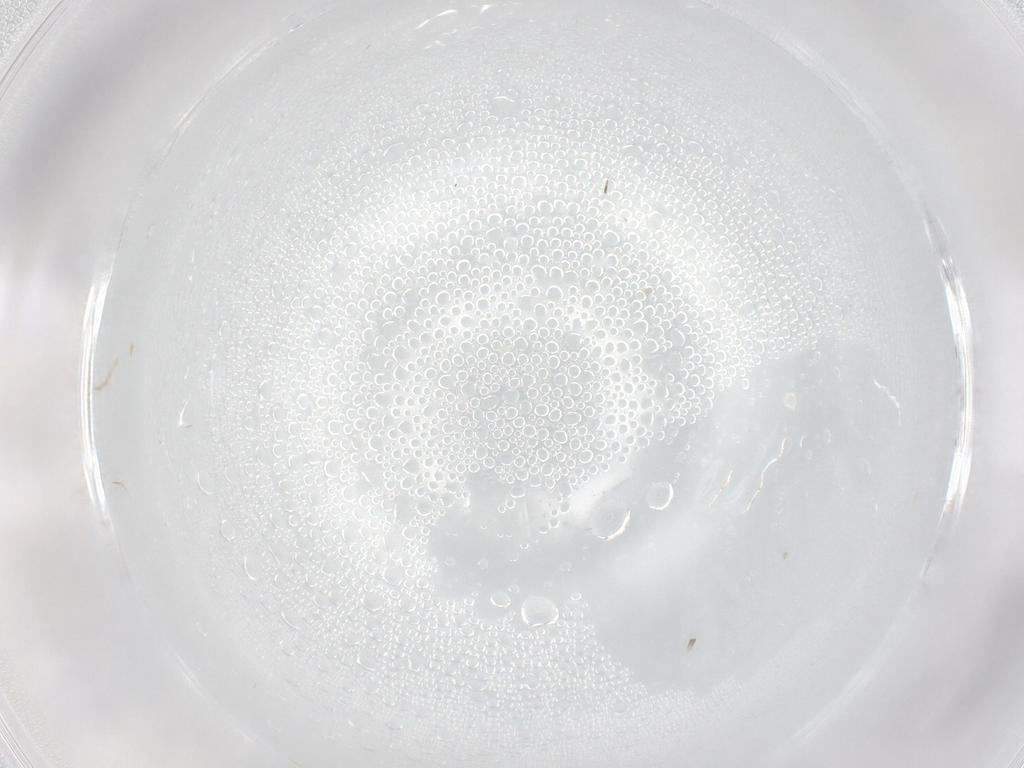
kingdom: Animalia
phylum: Arthropoda
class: Insecta
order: Coleoptera
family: Phalacridae
